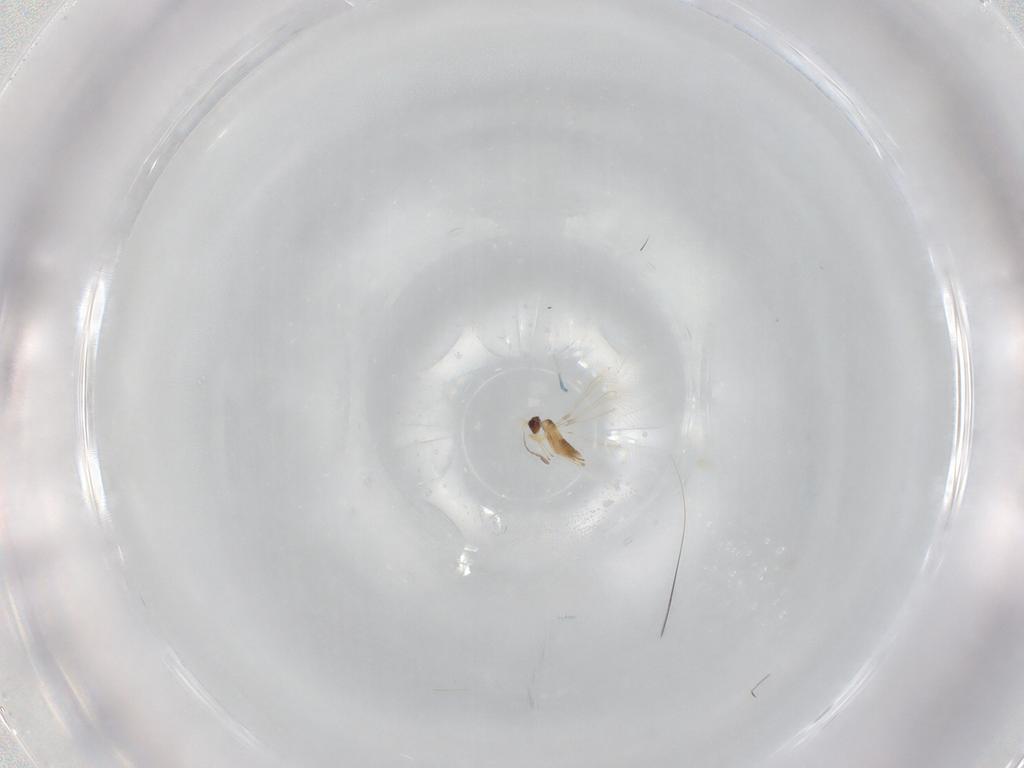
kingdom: Animalia
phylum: Arthropoda
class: Insecta
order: Hymenoptera
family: Mymaridae
